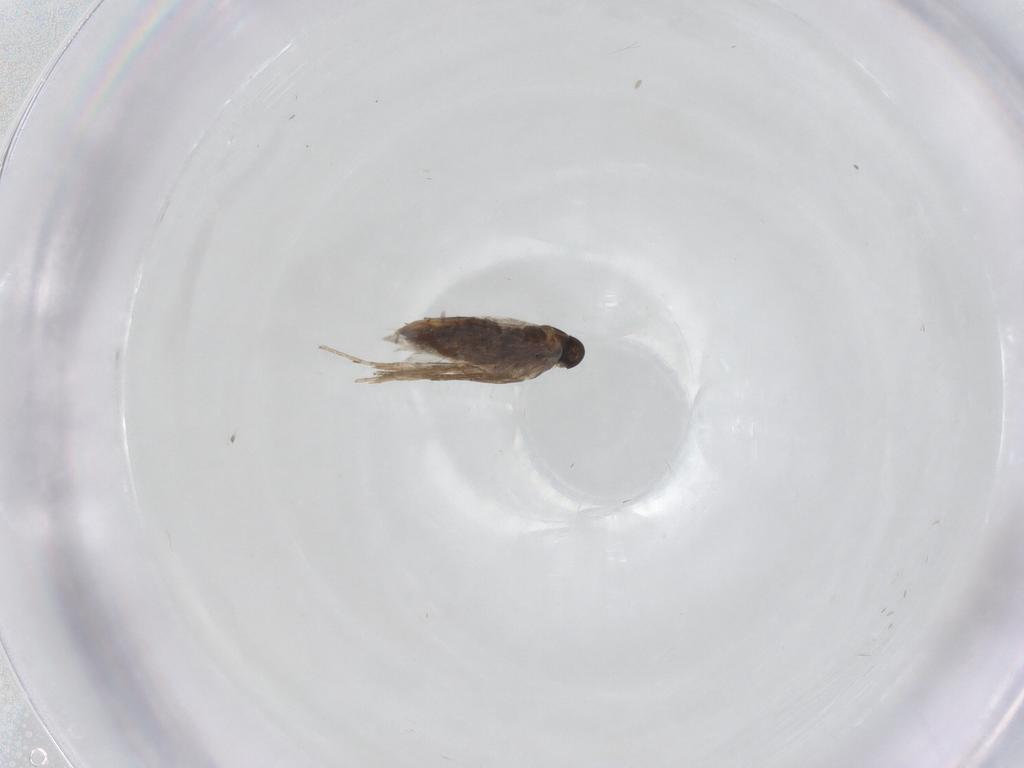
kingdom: Animalia
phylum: Arthropoda
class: Insecta
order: Lepidoptera
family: Heliozelidae
